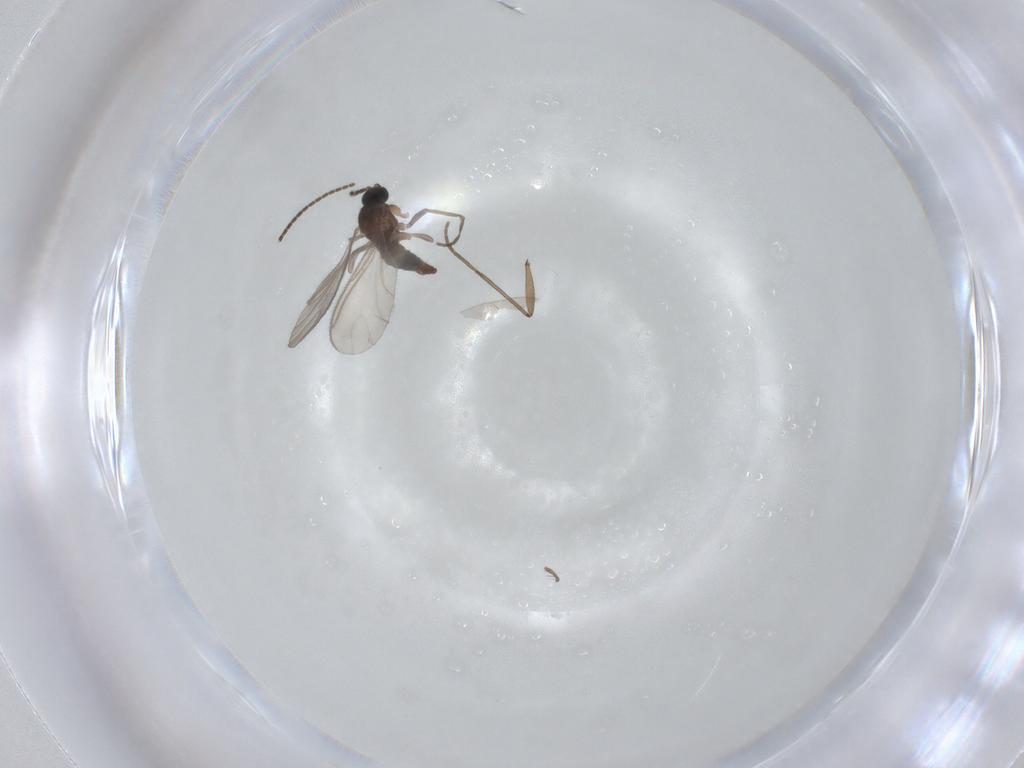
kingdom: Animalia
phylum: Arthropoda
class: Insecta
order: Diptera
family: Sciaridae
